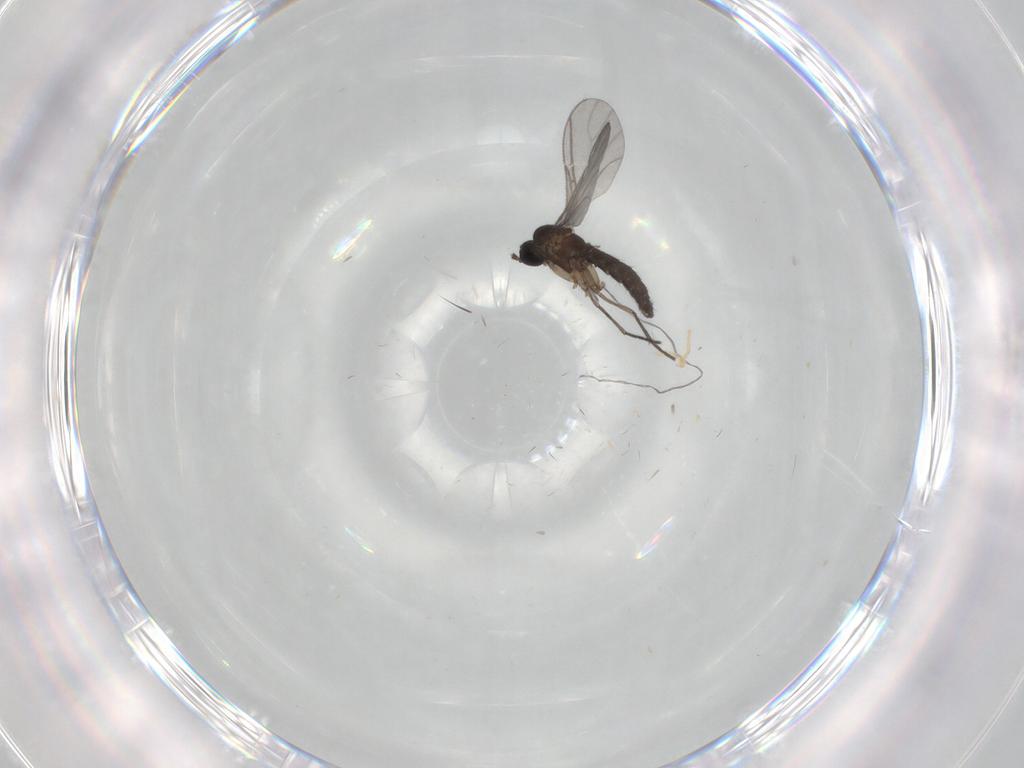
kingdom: Animalia
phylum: Arthropoda
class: Insecta
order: Diptera
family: Sciaridae
